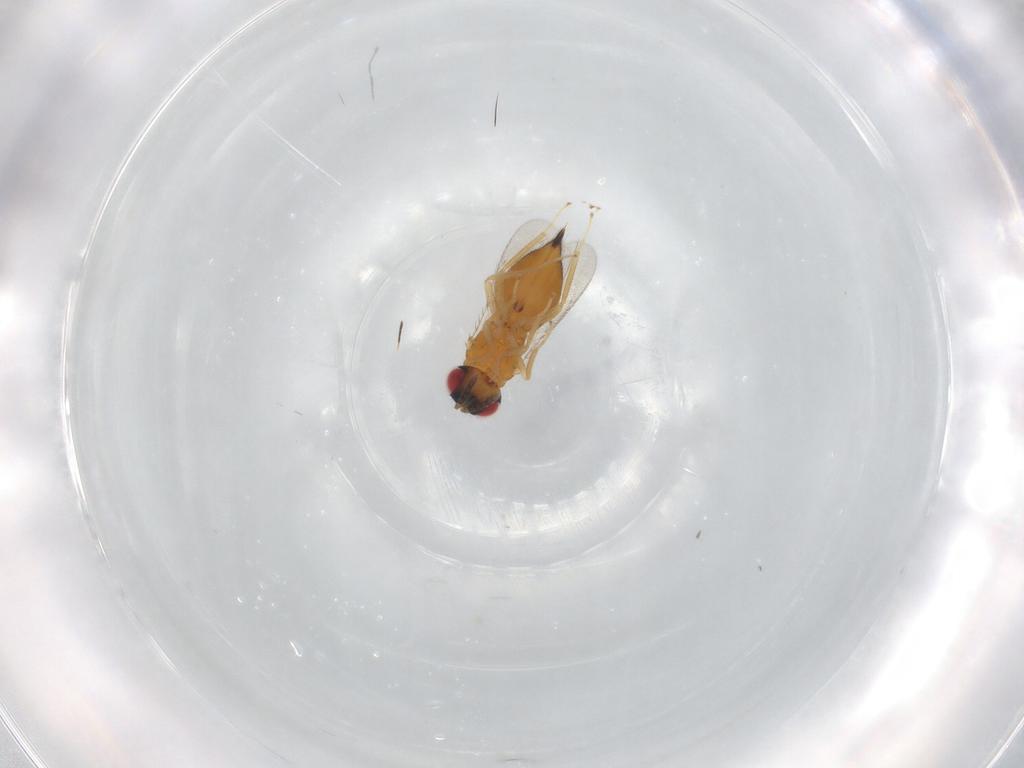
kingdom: Animalia
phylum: Arthropoda
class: Insecta
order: Hymenoptera
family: Eulophidae
